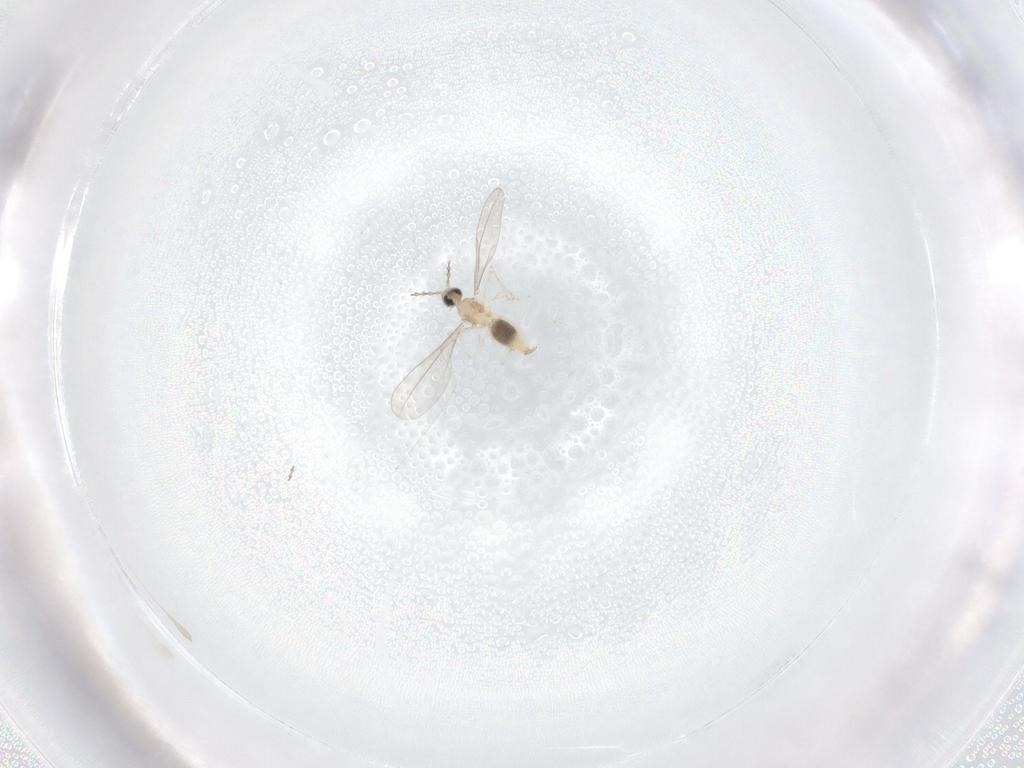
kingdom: Animalia
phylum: Arthropoda
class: Insecta
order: Diptera
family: Cecidomyiidae
